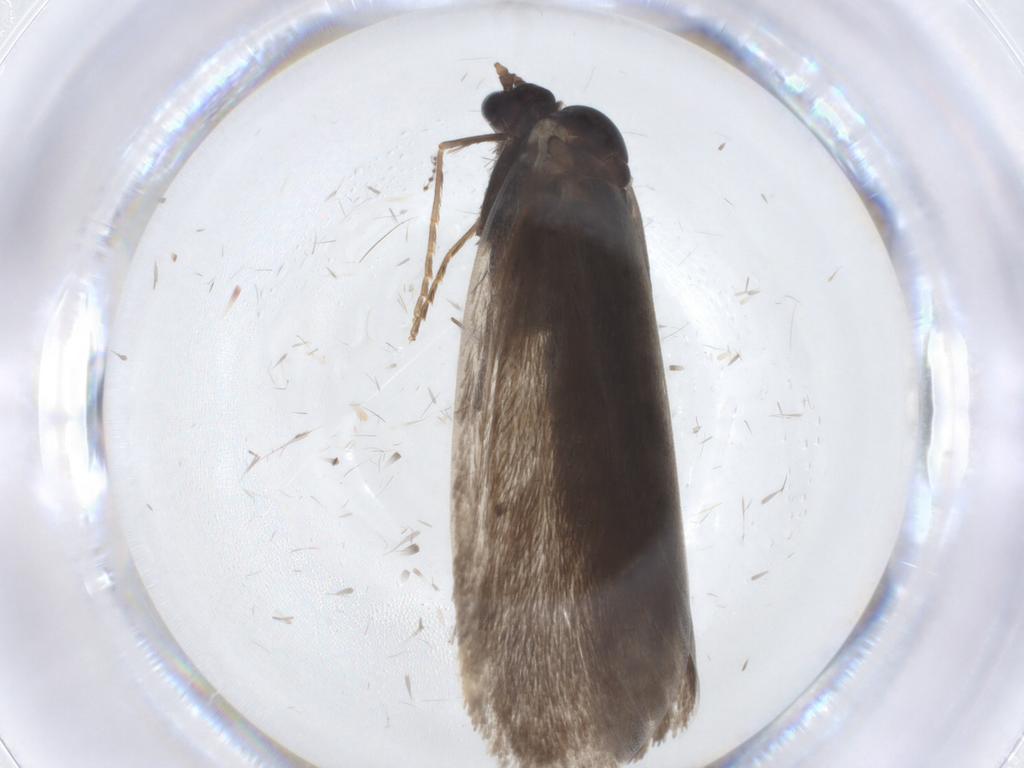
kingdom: Animalia
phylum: Arthropoda
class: Insecta
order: Lepidoptera
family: Psychidae
